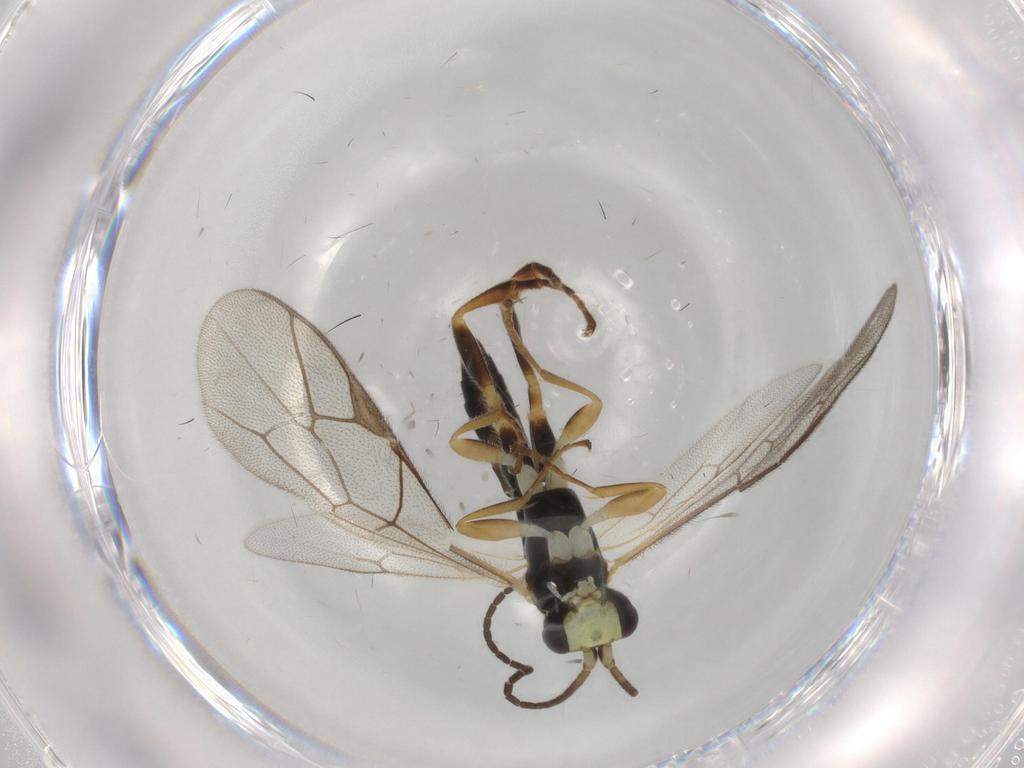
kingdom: Animalia
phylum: Arthropoda
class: Insecta
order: Hymenoptera
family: Ichneumonidae
